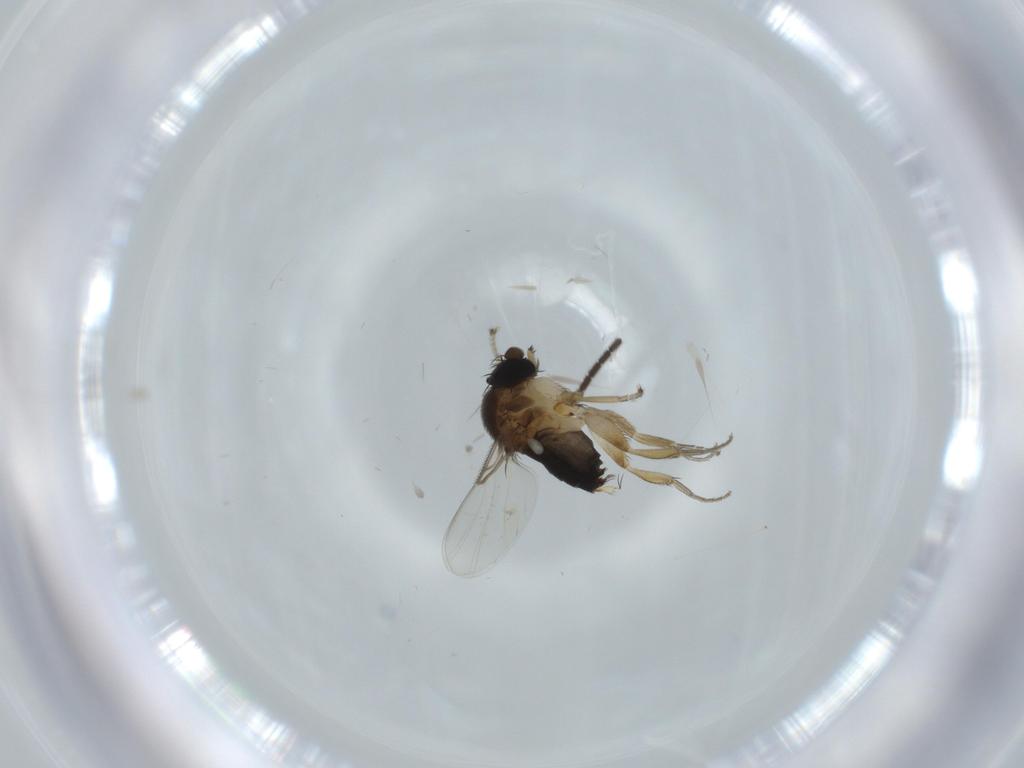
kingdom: Animalia
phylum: Arthropoda
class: Insecta
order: Diptera
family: Phoridae
